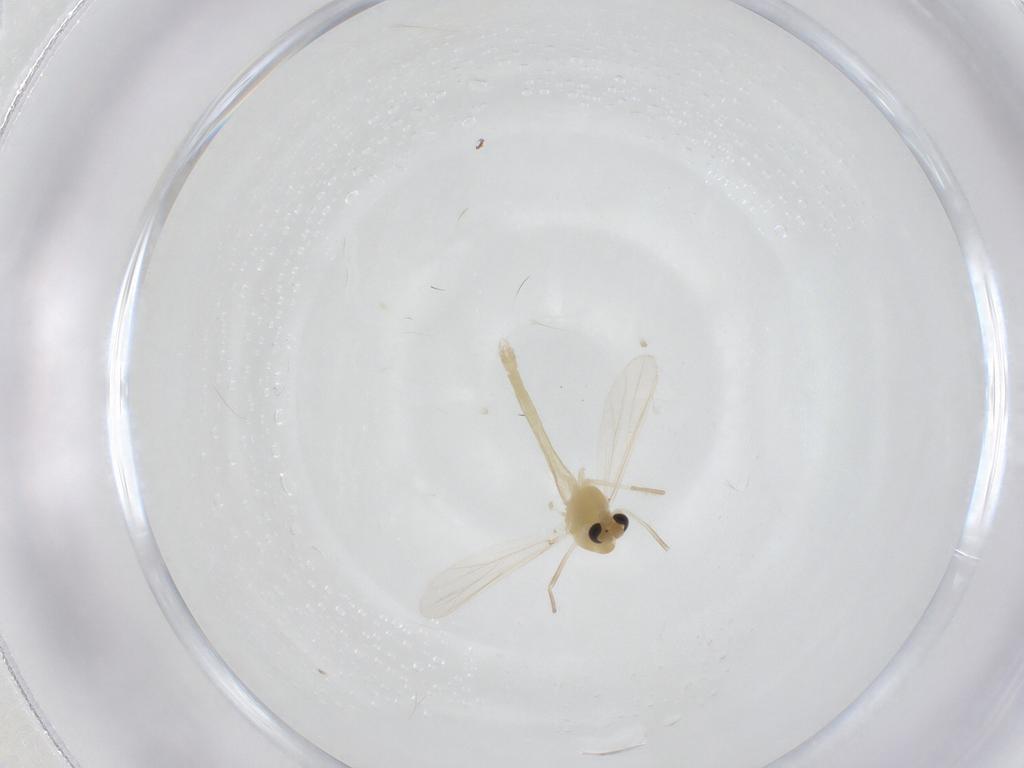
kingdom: Animalia
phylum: Arthropoda
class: Insecta
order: Diptera
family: Chironomidae
